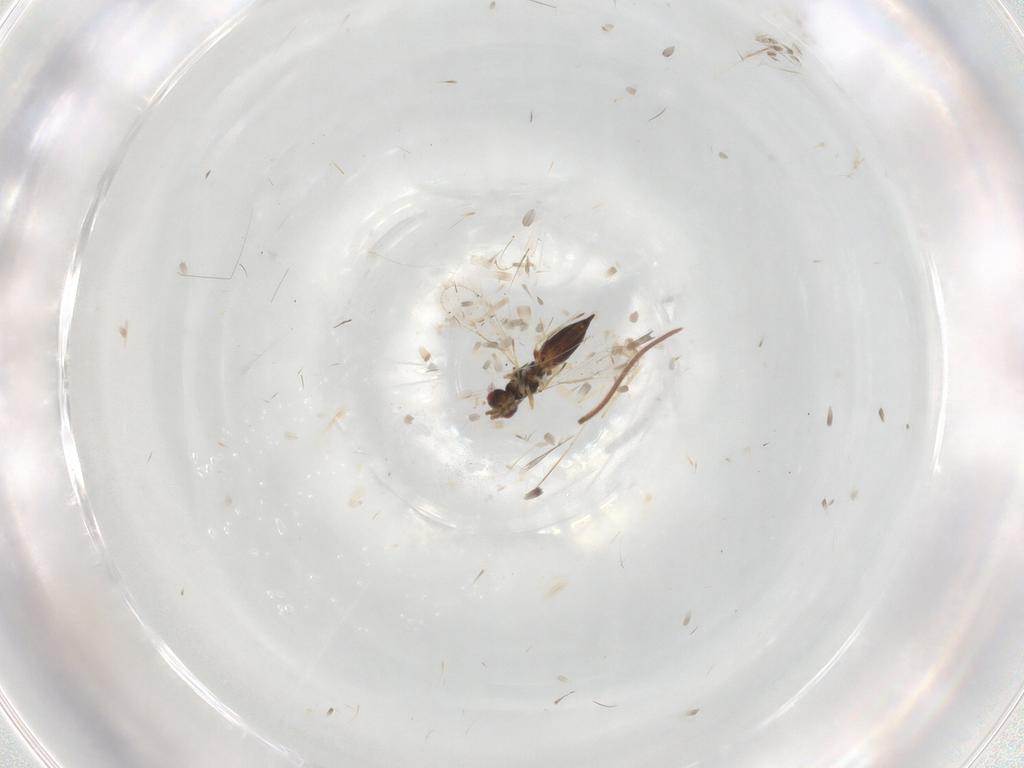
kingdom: Animalia
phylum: Arthropoda
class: Insecta
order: Hymenoptera
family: Eulophidae
